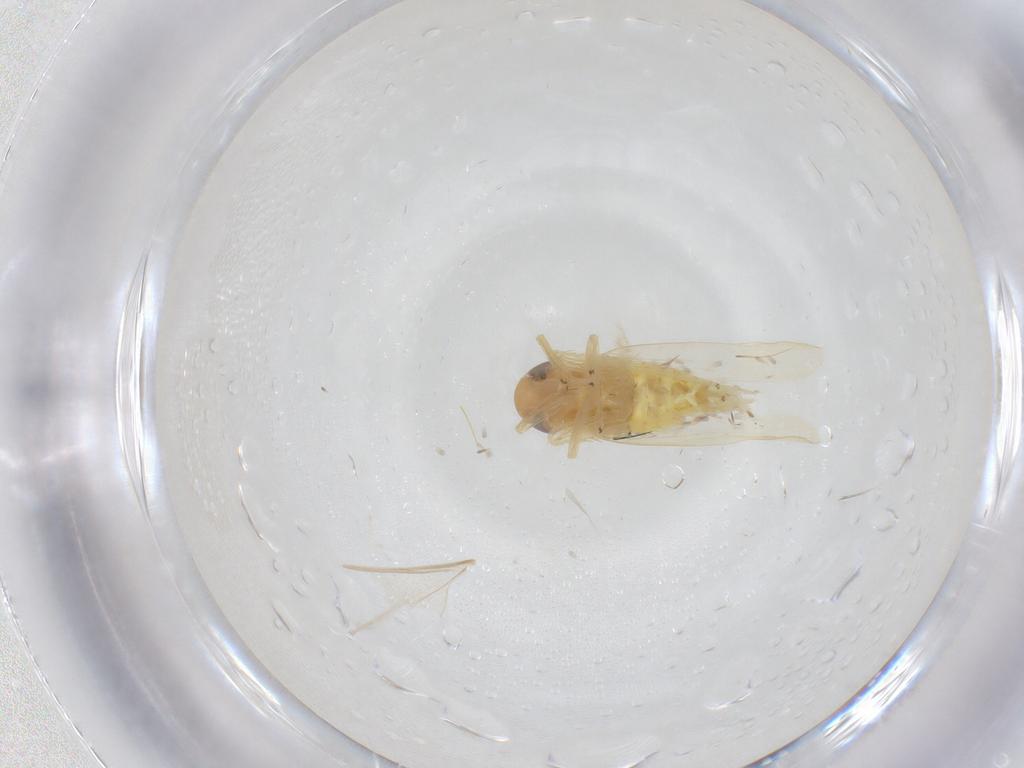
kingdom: Animalia
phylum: Arthropoda
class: Insecta
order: Hemiptera
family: Cicadellidae
